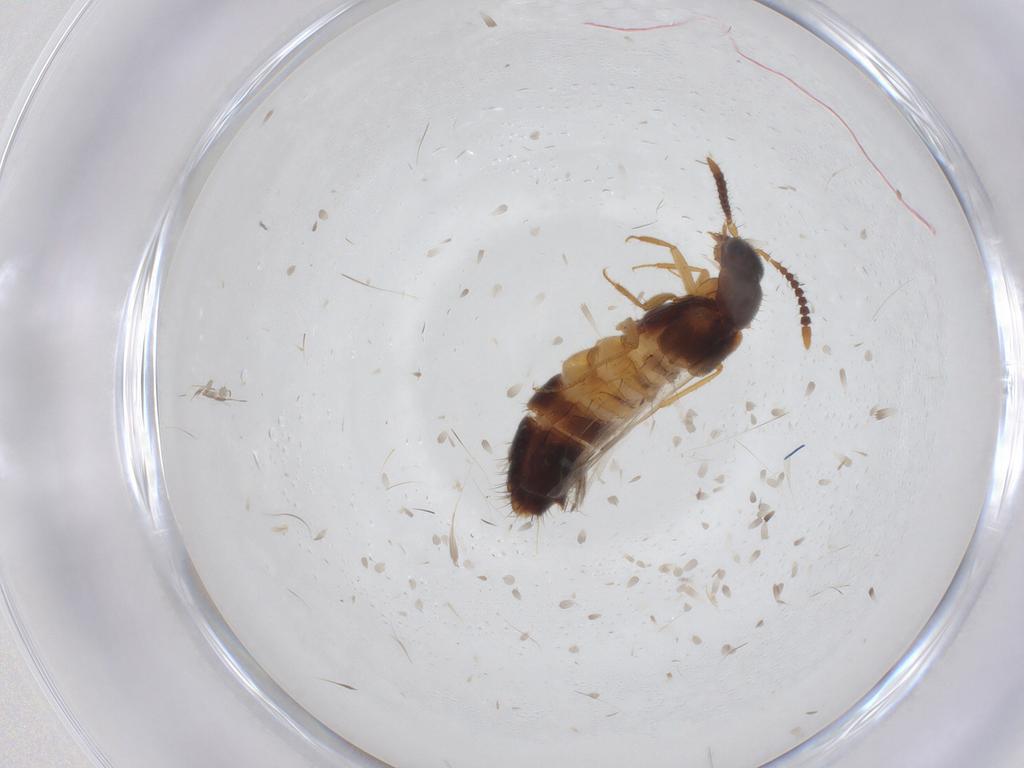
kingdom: Animalia
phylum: Arthropoda
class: Insecta
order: Coleoptera
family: Staphylinidae
